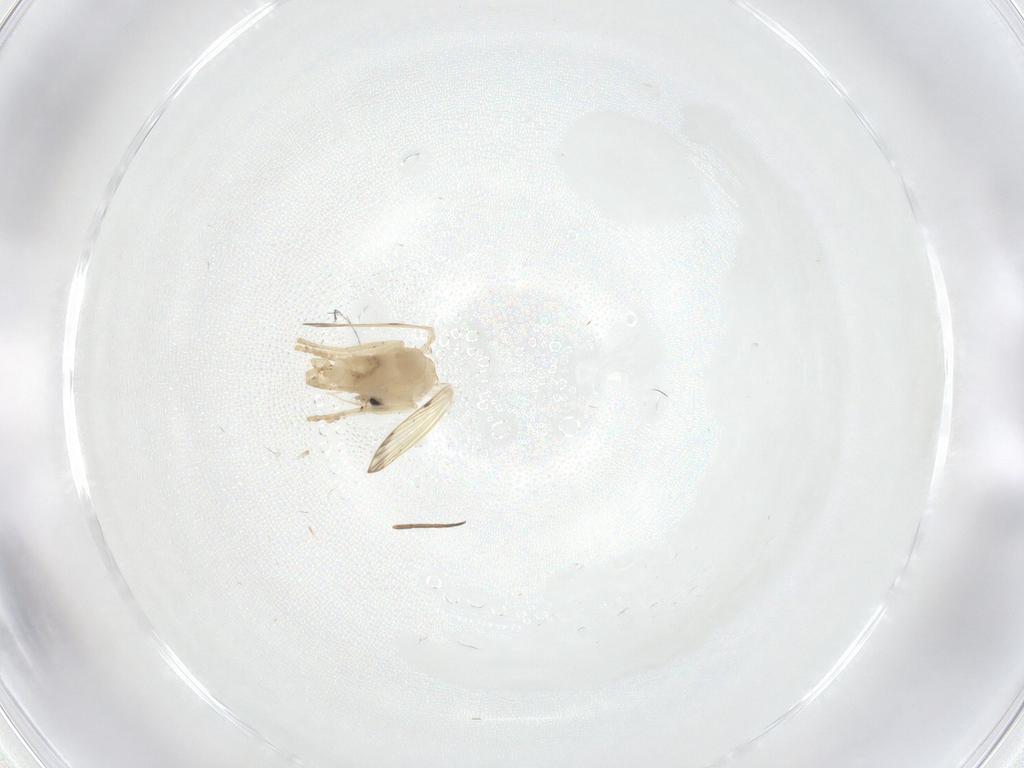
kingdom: Animalia
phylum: Arthropoda
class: Insecta
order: Diptera
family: Psychodidae
